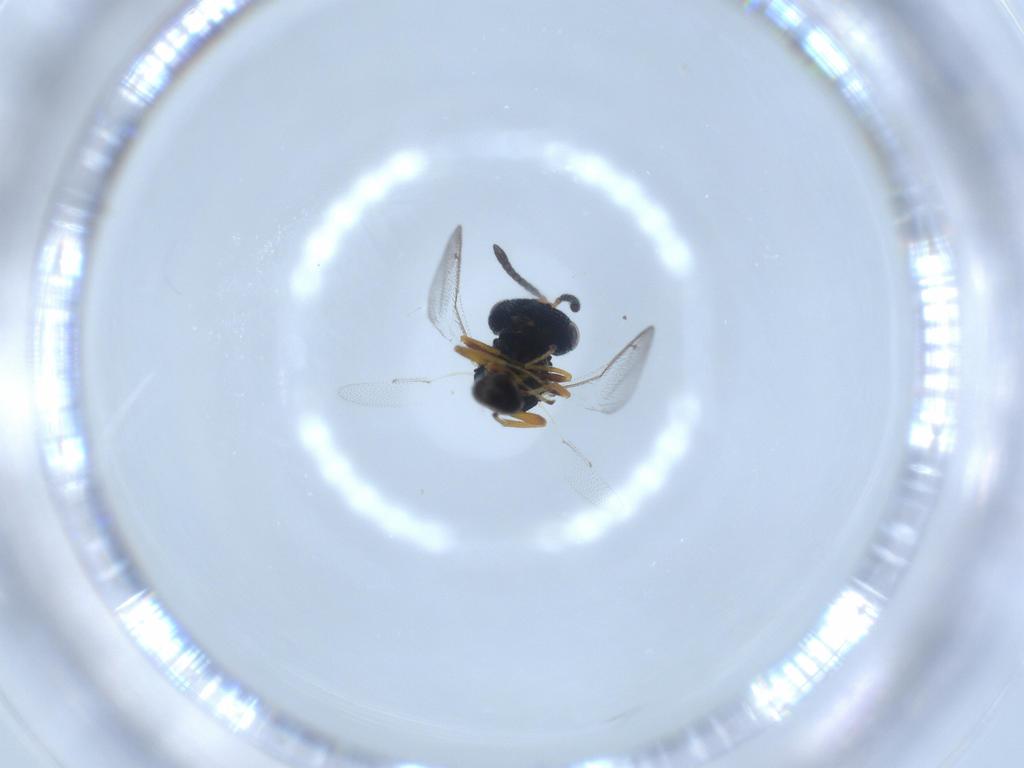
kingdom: Animalia
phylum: Arthropoda
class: Insecta
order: Hymenoptera
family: Pteromalidae
